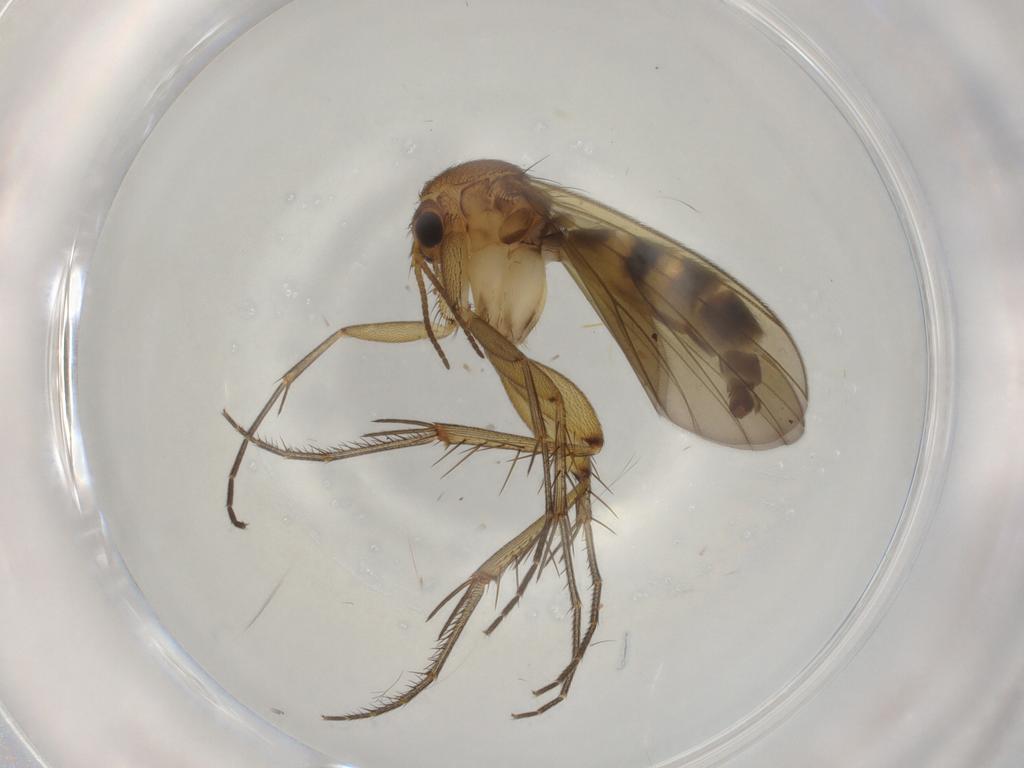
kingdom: Animalia
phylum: Arthropoda
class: Insecta
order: Diptera
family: Mycetophilidae
